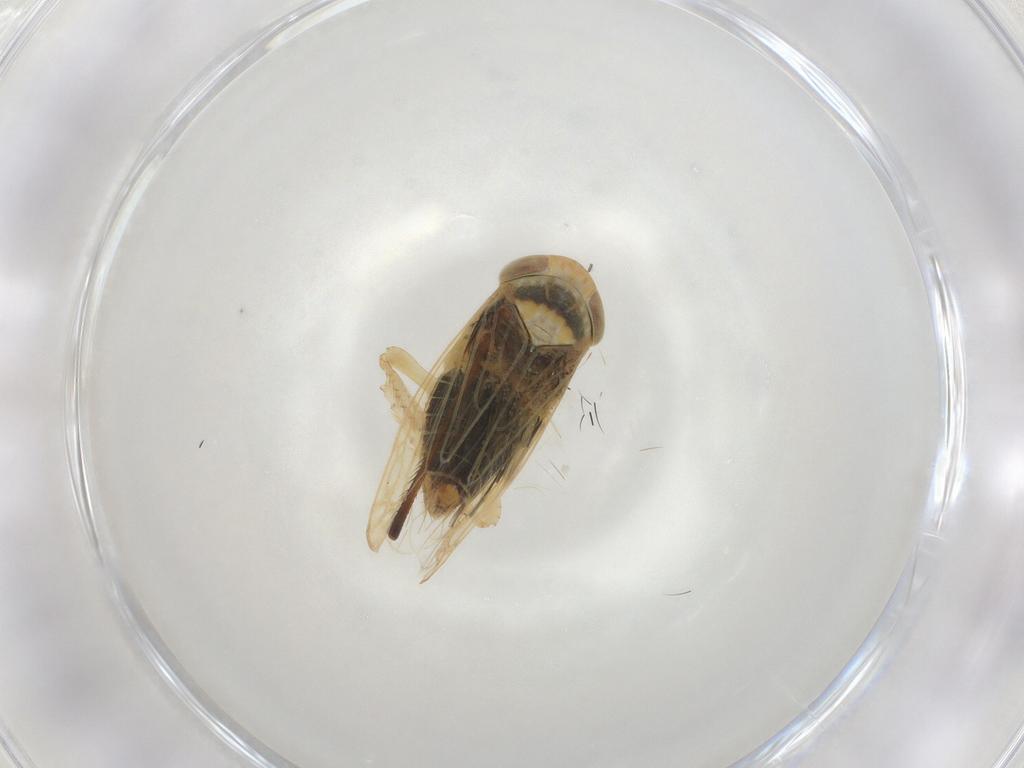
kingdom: Animalia
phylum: Arthropoda
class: Insecta
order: Hemiptera
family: Cicadellidae
